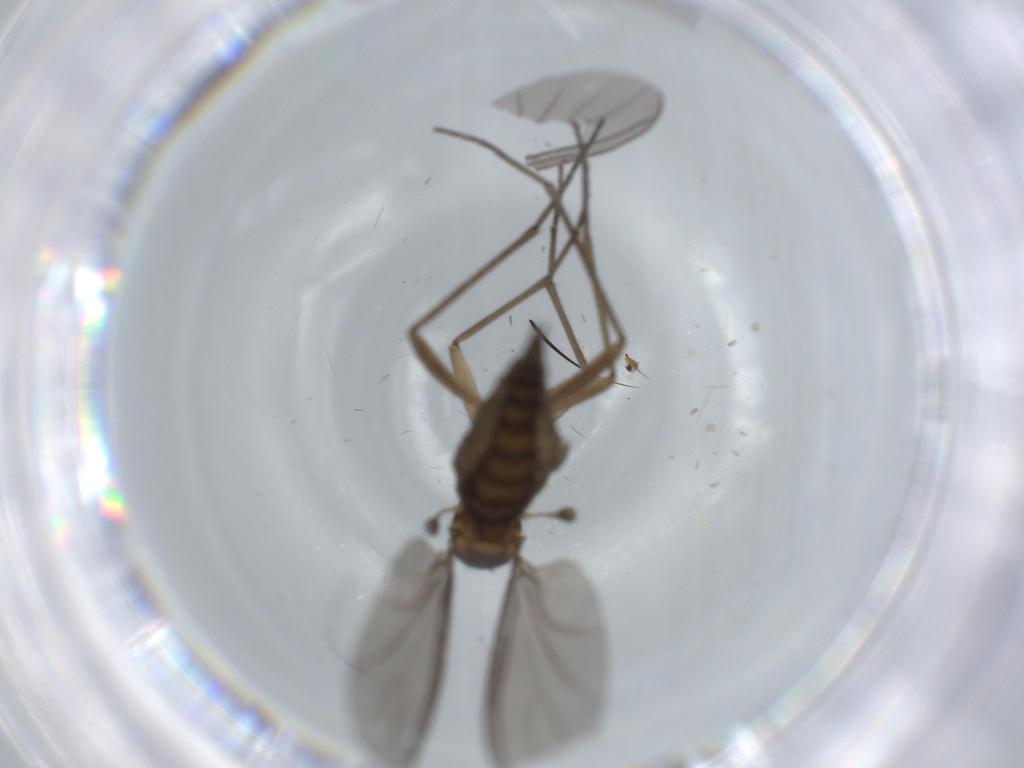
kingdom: Animalia
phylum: Arthropoda
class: Insecta
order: Diptera
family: Sciaridae
